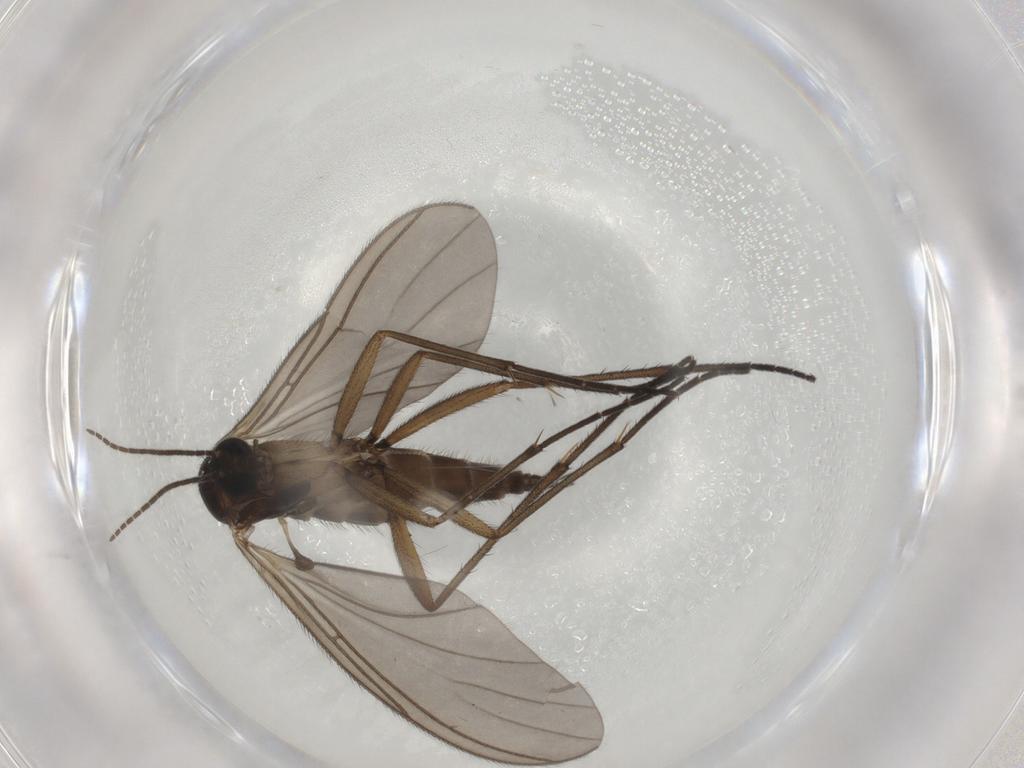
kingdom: Animalia
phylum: Arthropoda
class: Insecta
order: Diptera
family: Sciaridae
